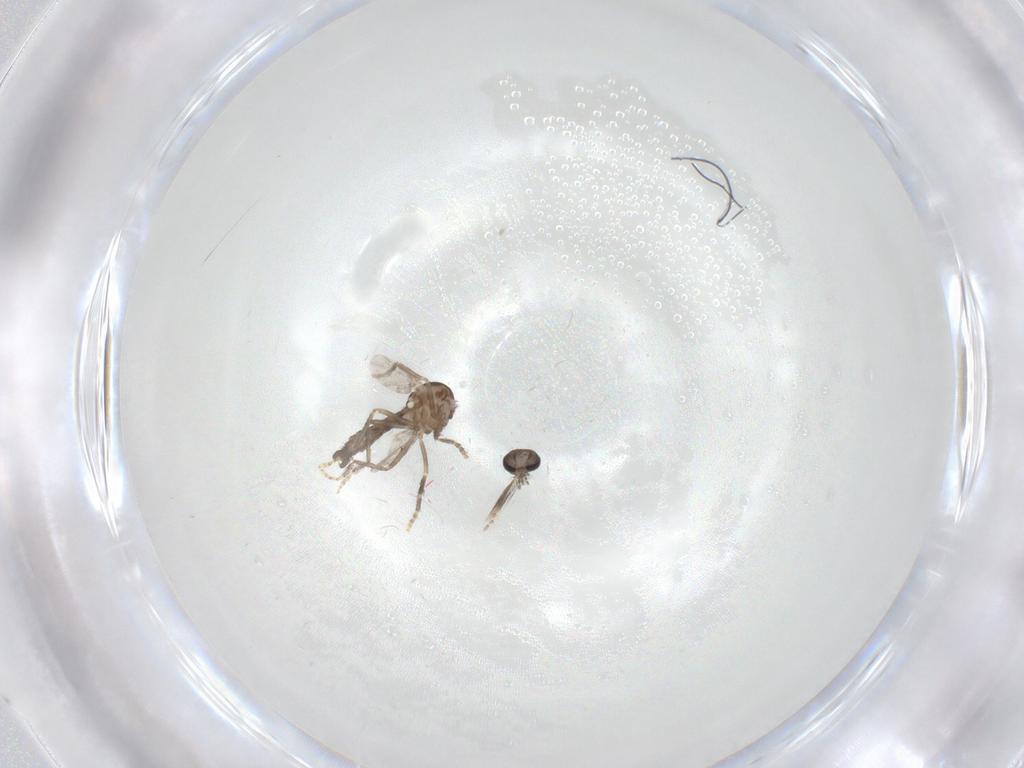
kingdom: Animalia
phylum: Arthropoda
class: Insecta
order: Diptera
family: Ceratopogonidae
